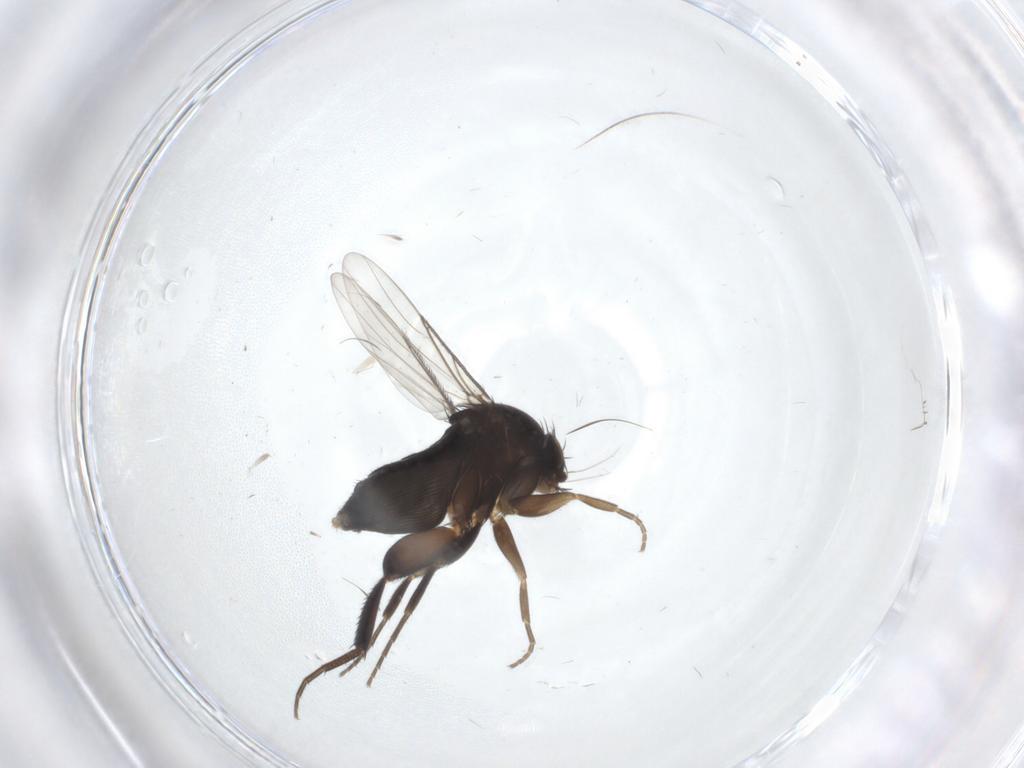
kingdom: Animalia
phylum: Arthropoda
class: Insecta
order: Diptera
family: Phoridae
